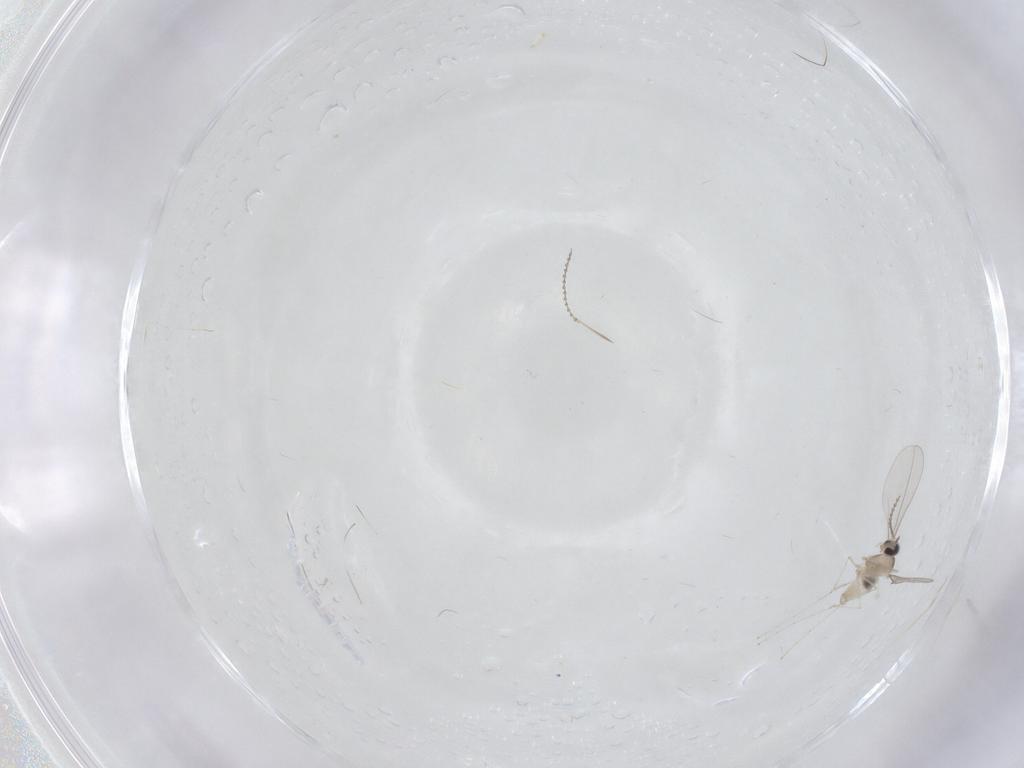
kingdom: Animalia
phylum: Arthropoda
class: Insecta
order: Diptera
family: Cecidomyiidae
